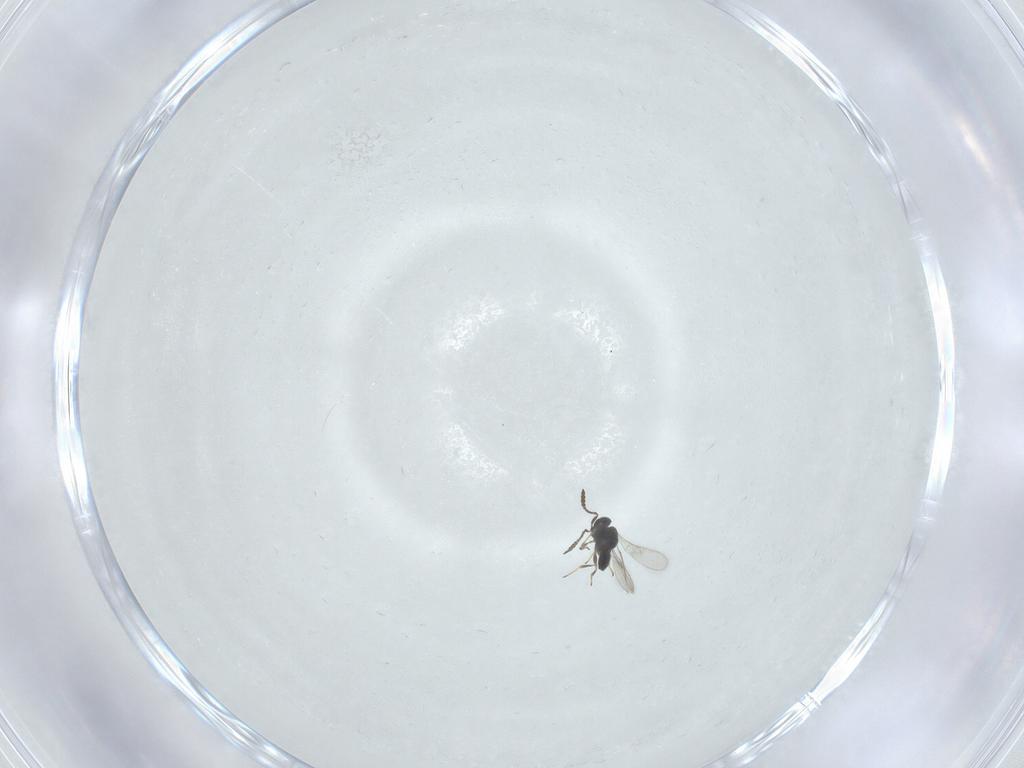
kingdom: Animalia
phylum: Arthropoda
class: Insecta
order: Hymenoptera
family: Scelionidae
